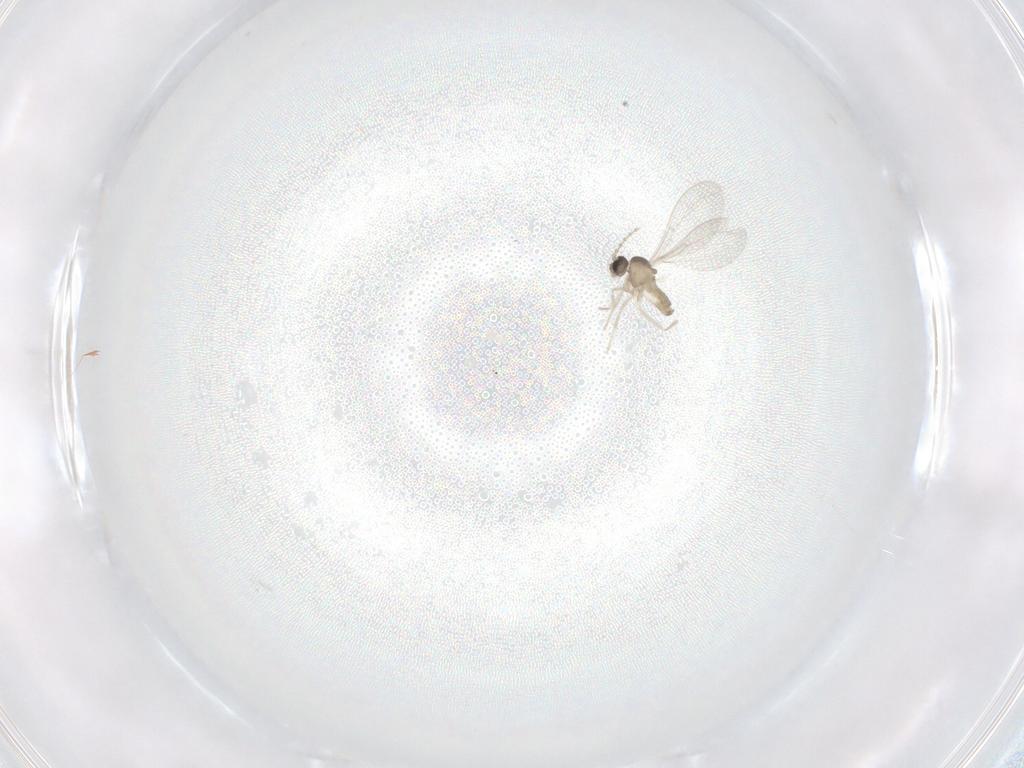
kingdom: Animalia
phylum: Arthropoda
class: Insecta
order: Diptera
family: Cecidomyiidae
